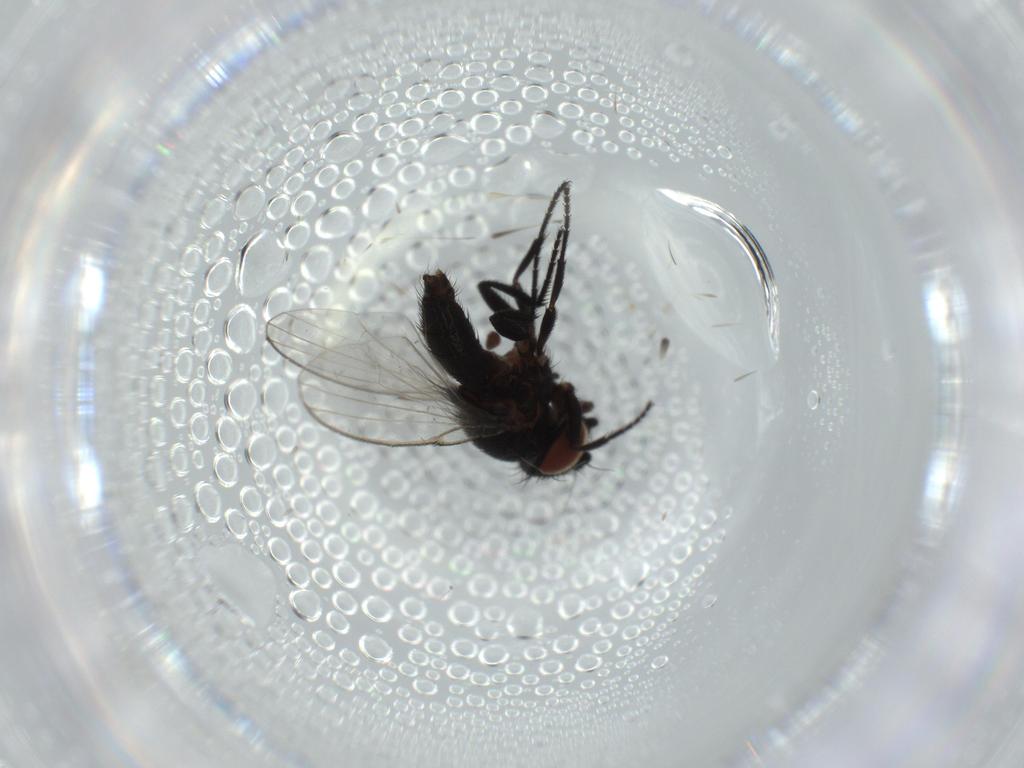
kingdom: Animalia
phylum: Arthropoda
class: Insecta
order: Diptera
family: Milichiidae
